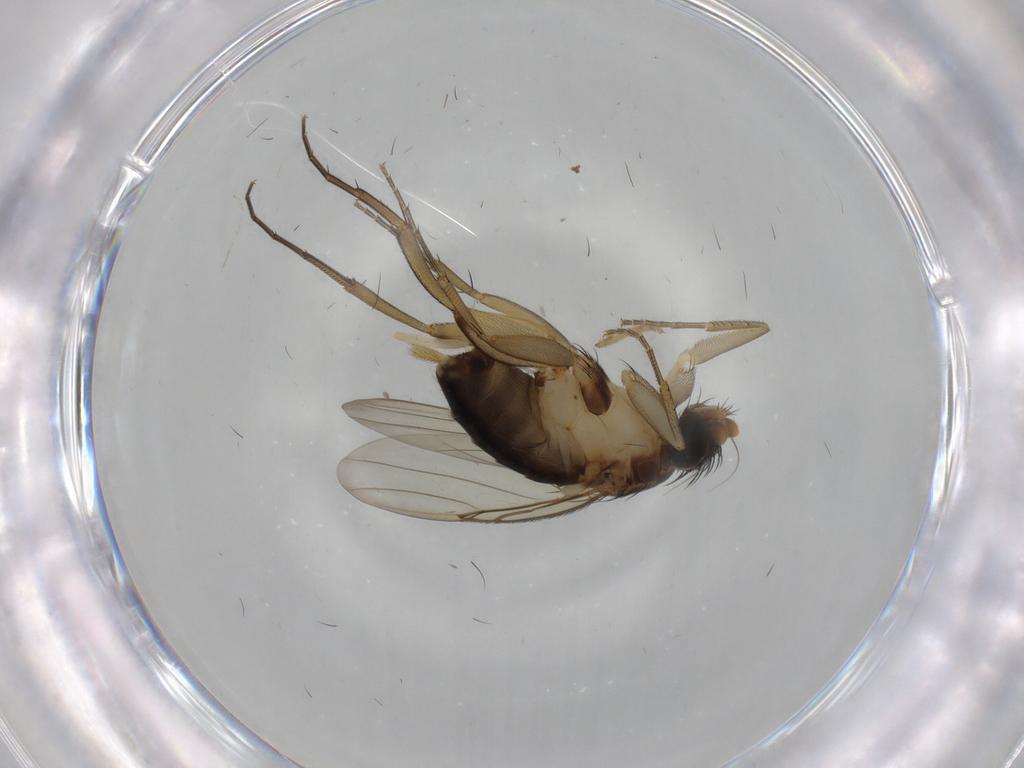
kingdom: Animalia
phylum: Arthropoda
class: Insecta
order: Diptera
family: Phoridae
